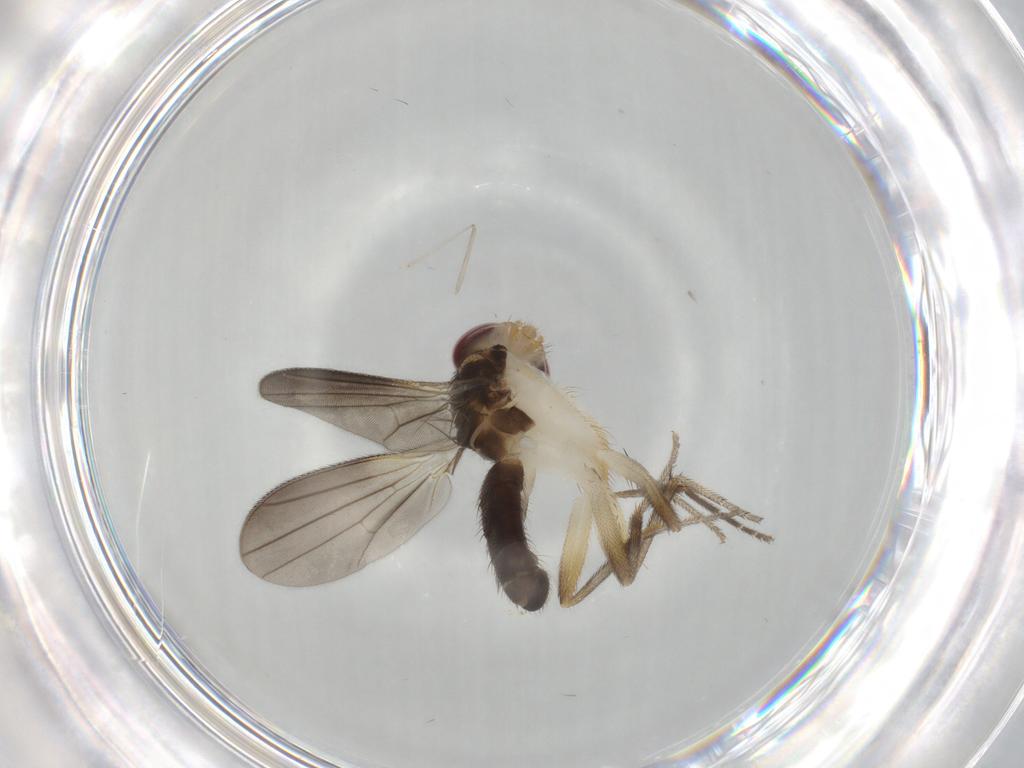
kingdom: Animalia
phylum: Arthropoda
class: Insecta
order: Diptera
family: Clusiidae
